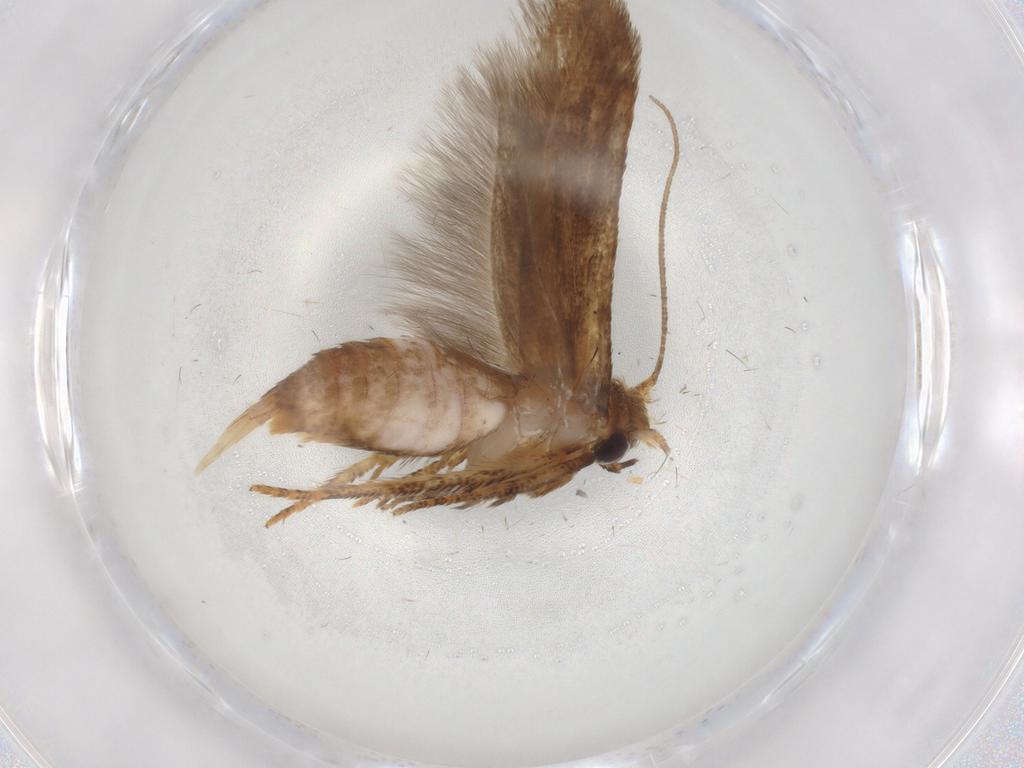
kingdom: Animalia
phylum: Arthropoda
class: Insecta
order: Lepidoptera
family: Blastobasidae
